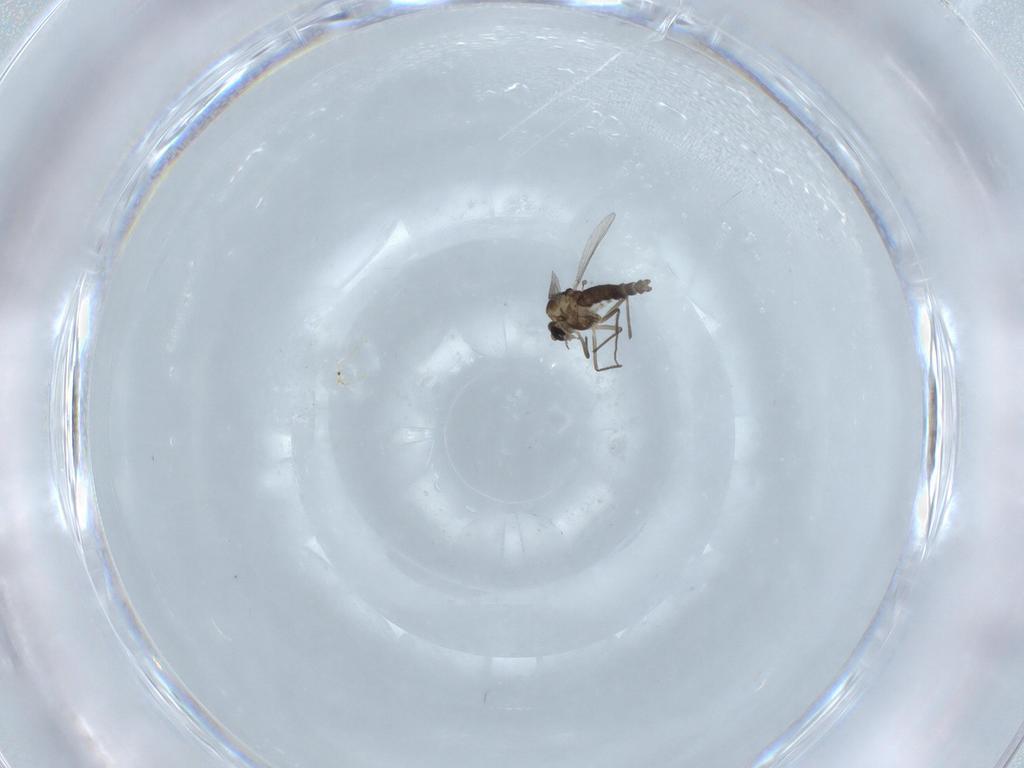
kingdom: Animalia
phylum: Arthropoda
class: Insecta
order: Diptera
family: Chironomidae
